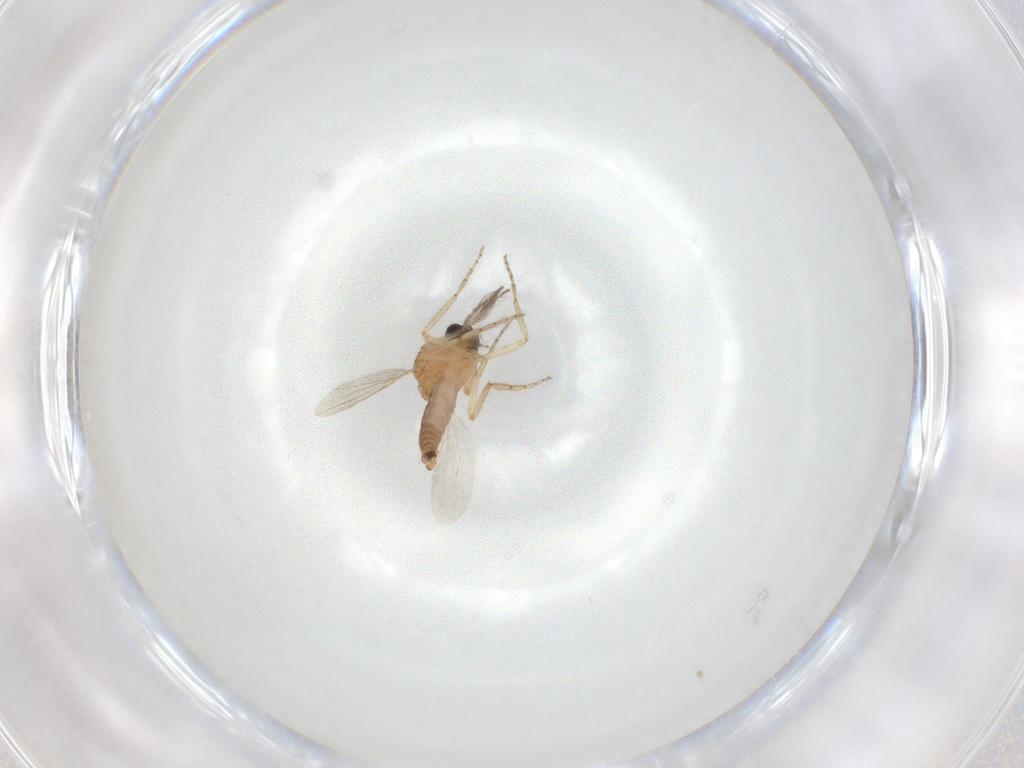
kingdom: Animalia
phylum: Arthropoda
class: Insecta
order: Diptera
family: Ceratopogonidae
